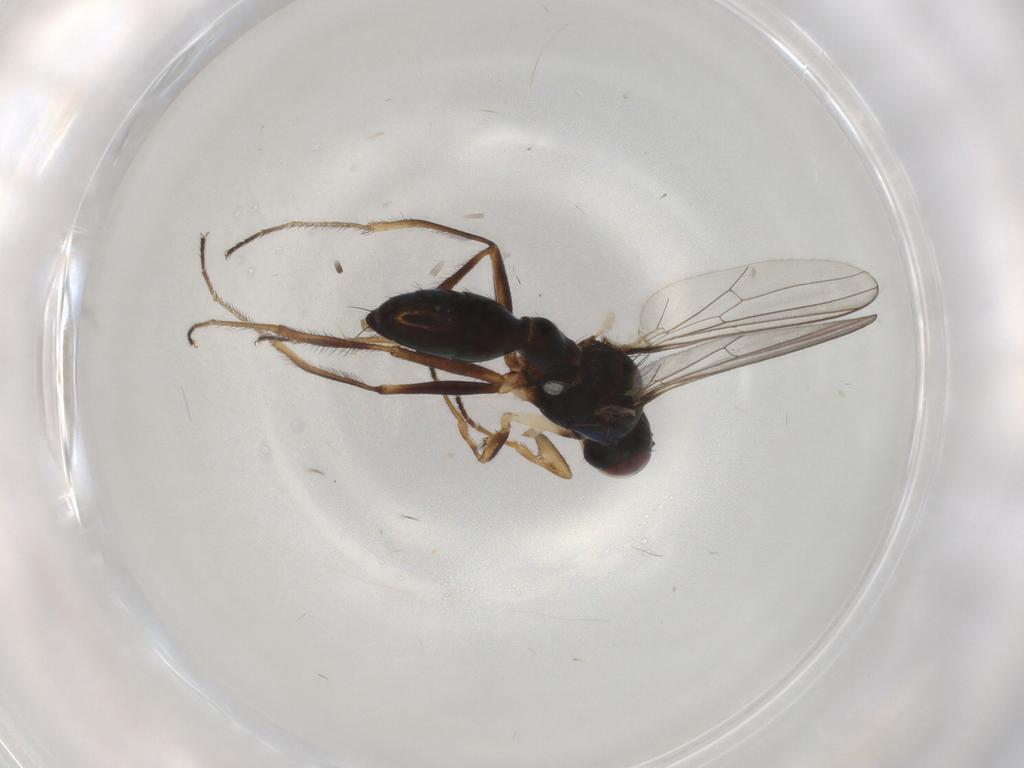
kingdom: Animalia
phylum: Arthropoda
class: Insecta
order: Diptera
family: Sepsidae
